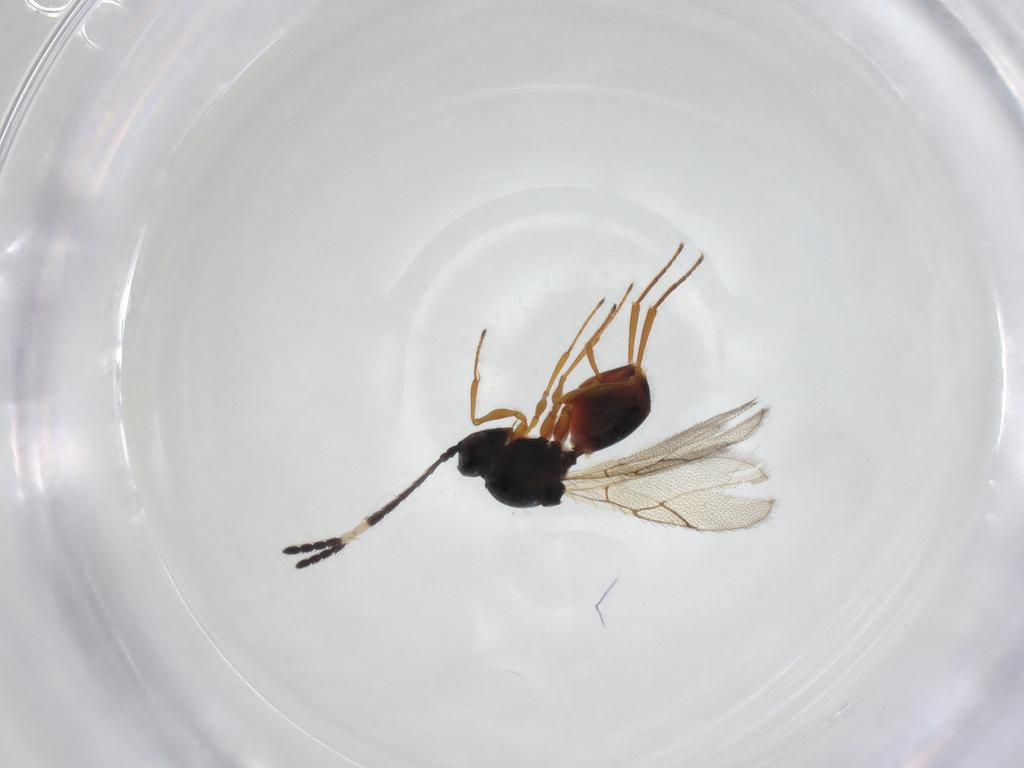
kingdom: Animalia
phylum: Arthropoda
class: Insecta
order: Hymenoptera
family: Figitidae
